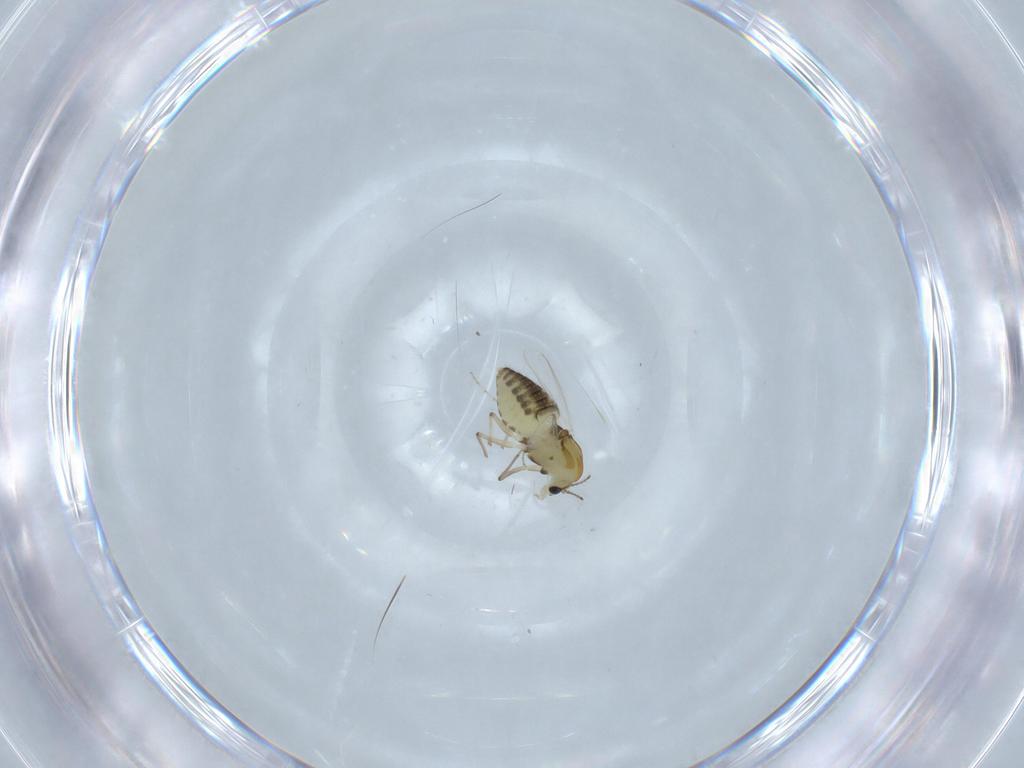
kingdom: Animalia
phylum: Arthropoda
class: Insecta
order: Diptera
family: Chironomidae
